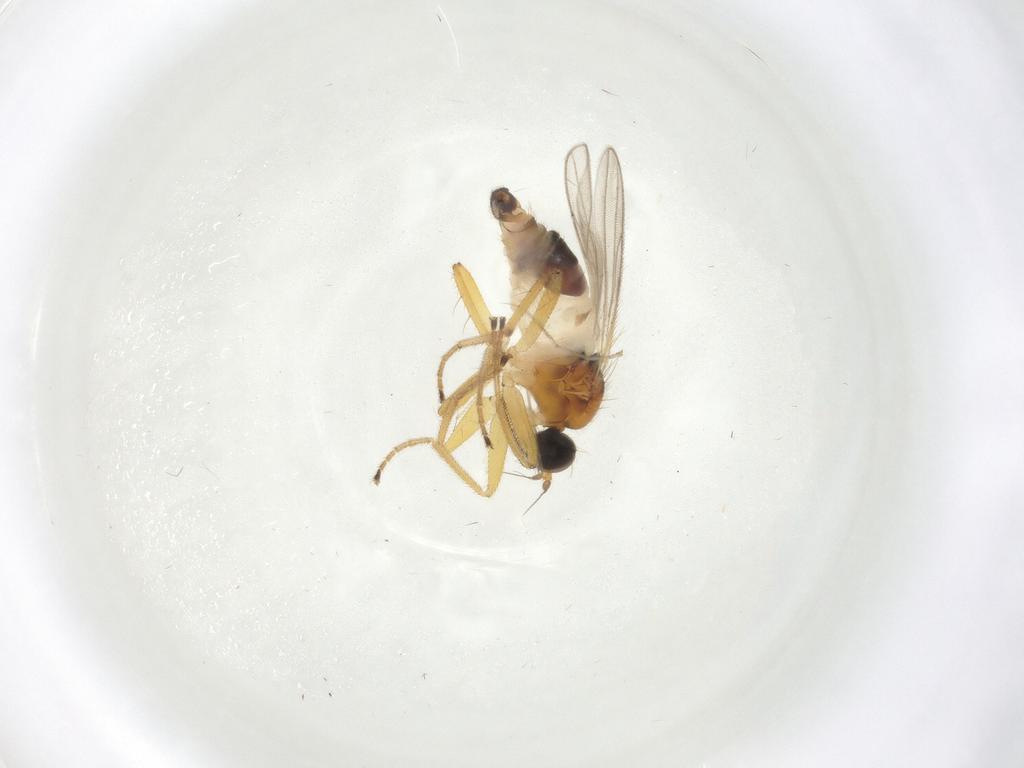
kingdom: Animalia
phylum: Arthropoda
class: Insecta
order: Diptera
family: Hybotidae
